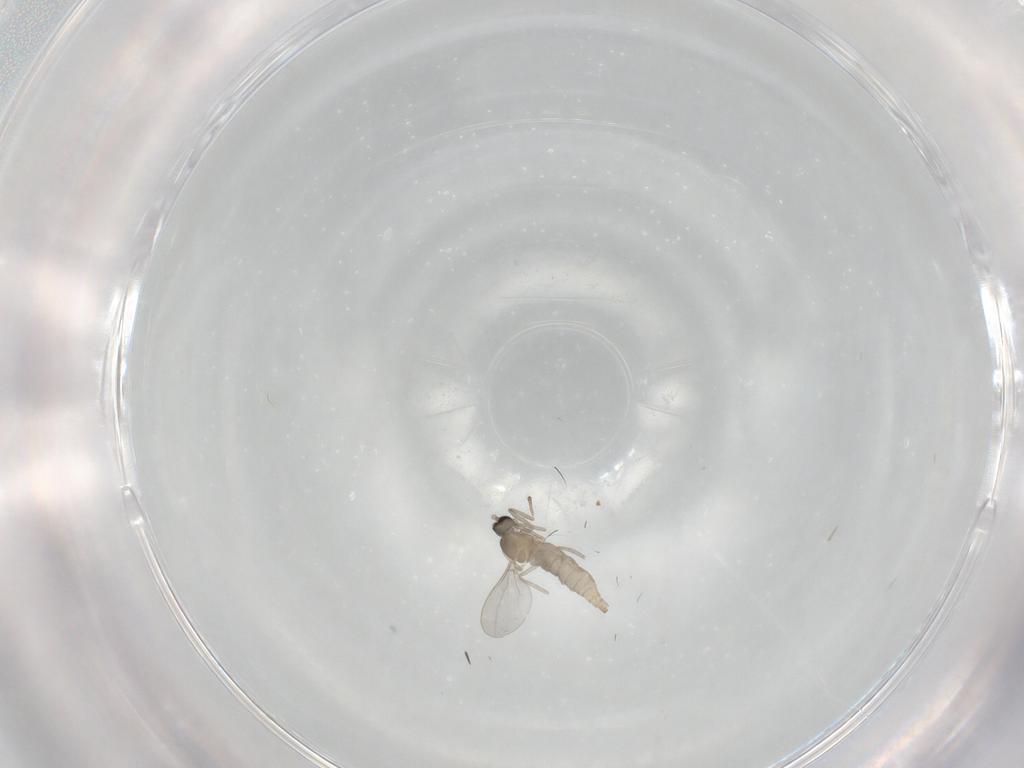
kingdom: Animalia
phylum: Arthropoda
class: Insecta
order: Diptera
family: Cecidomyiidae
